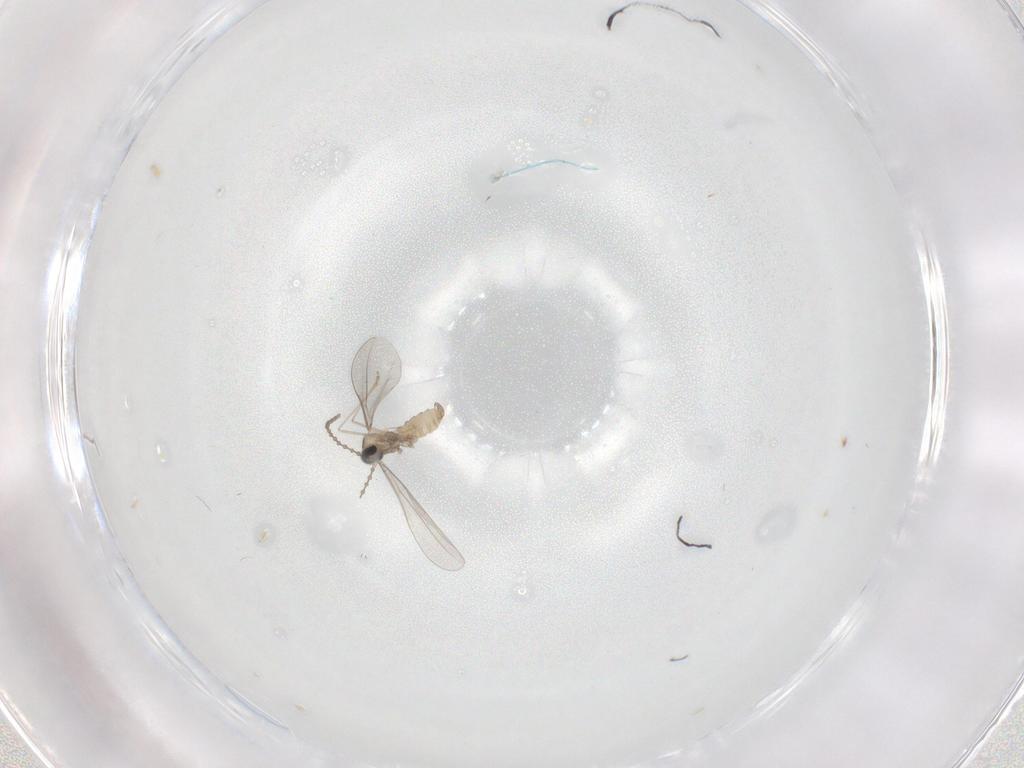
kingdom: Animalia
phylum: Arthropoda
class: Insecta
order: Diptera
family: Cecidomyiidae
